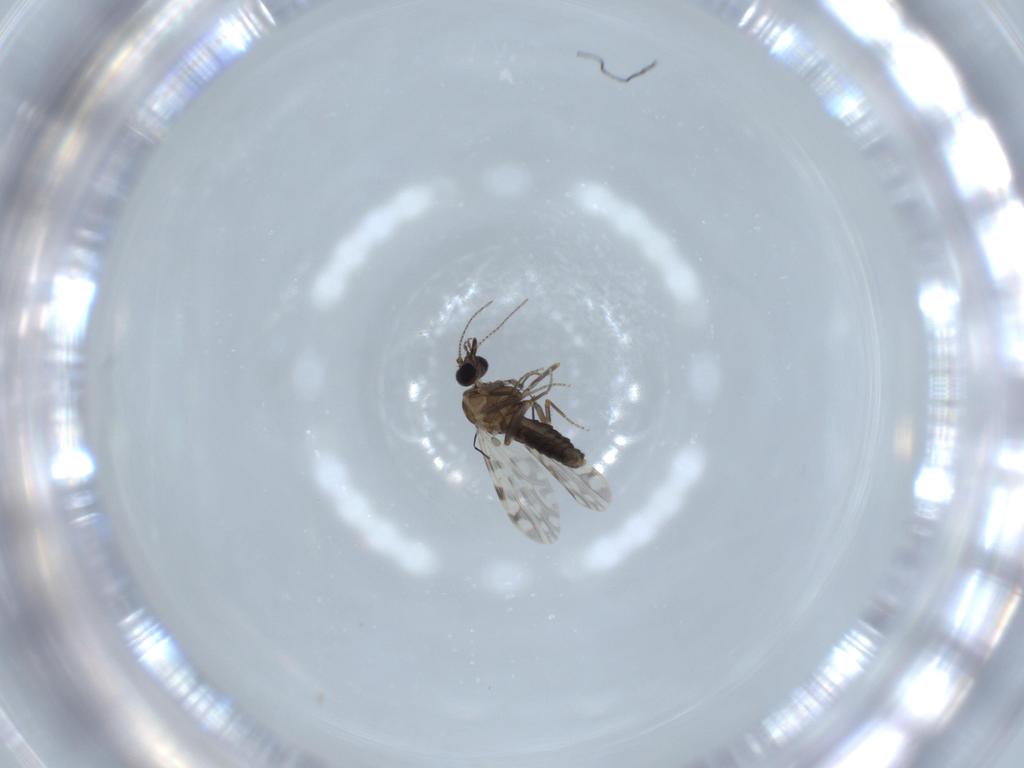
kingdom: Animalia
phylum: Arthropoda
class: Insecta
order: Diptera
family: Ceratopogonidae
